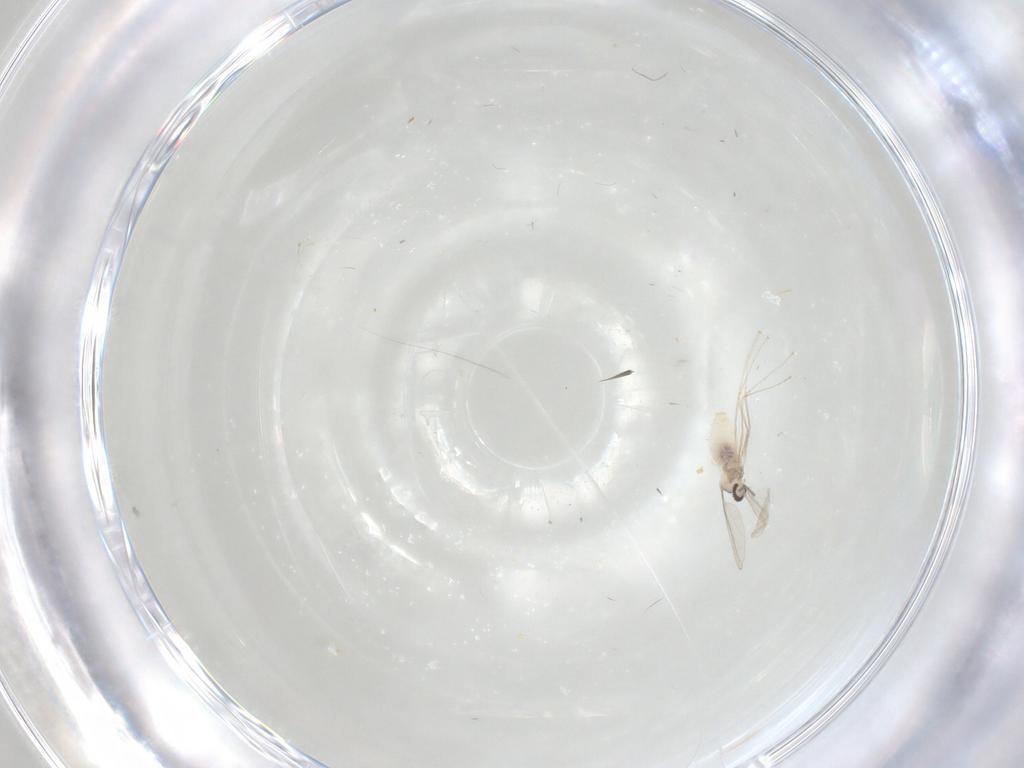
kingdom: Animalia
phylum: Arthropoda
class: Insecta
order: Diptera
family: Cecidomyiidae
